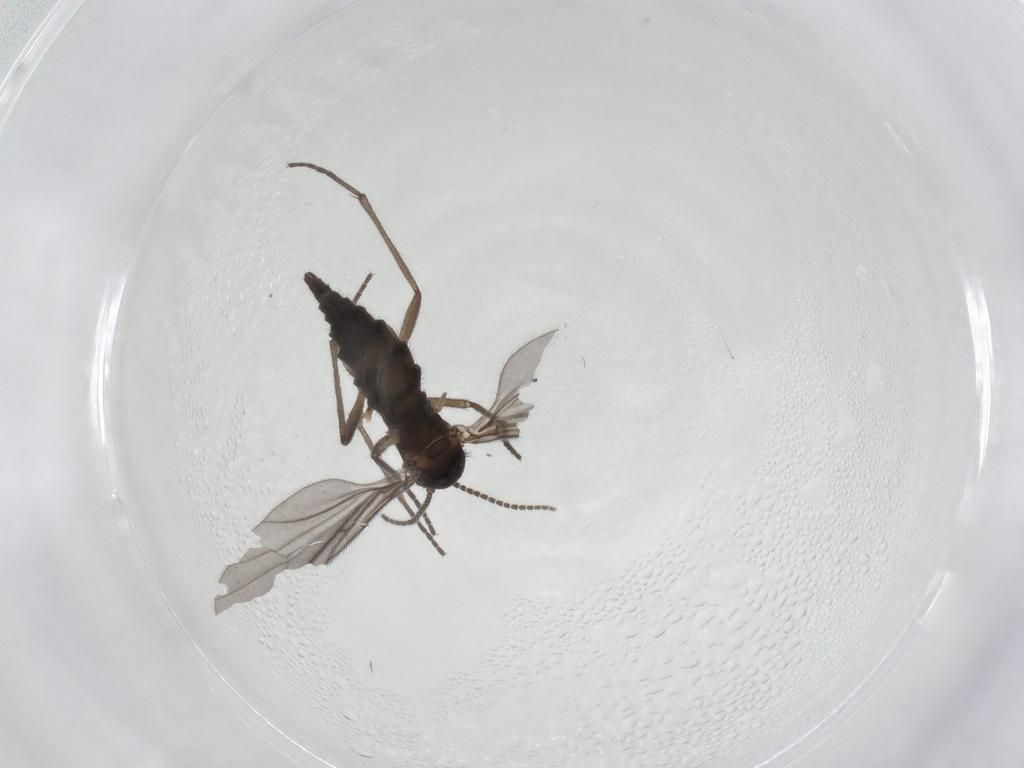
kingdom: Animalia
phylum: Arthropoda
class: Insecta
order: Diptera
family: Sciaridae
